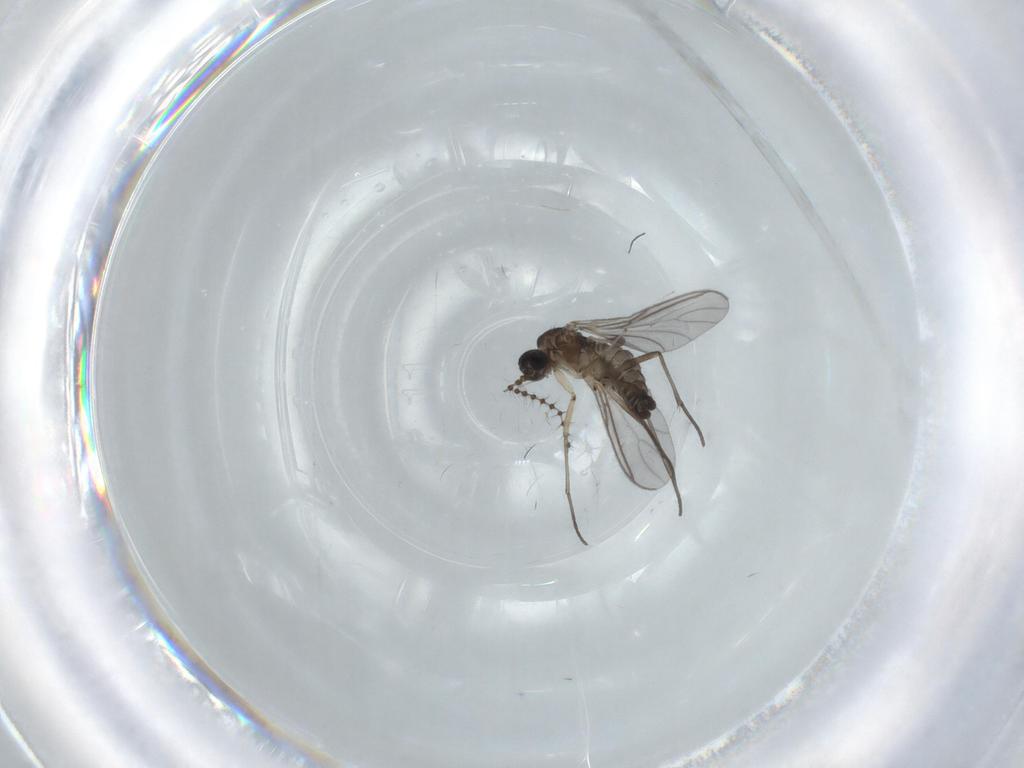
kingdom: Animalia
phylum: Arthropoda
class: Insecta
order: Diptera
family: Sciaridae
